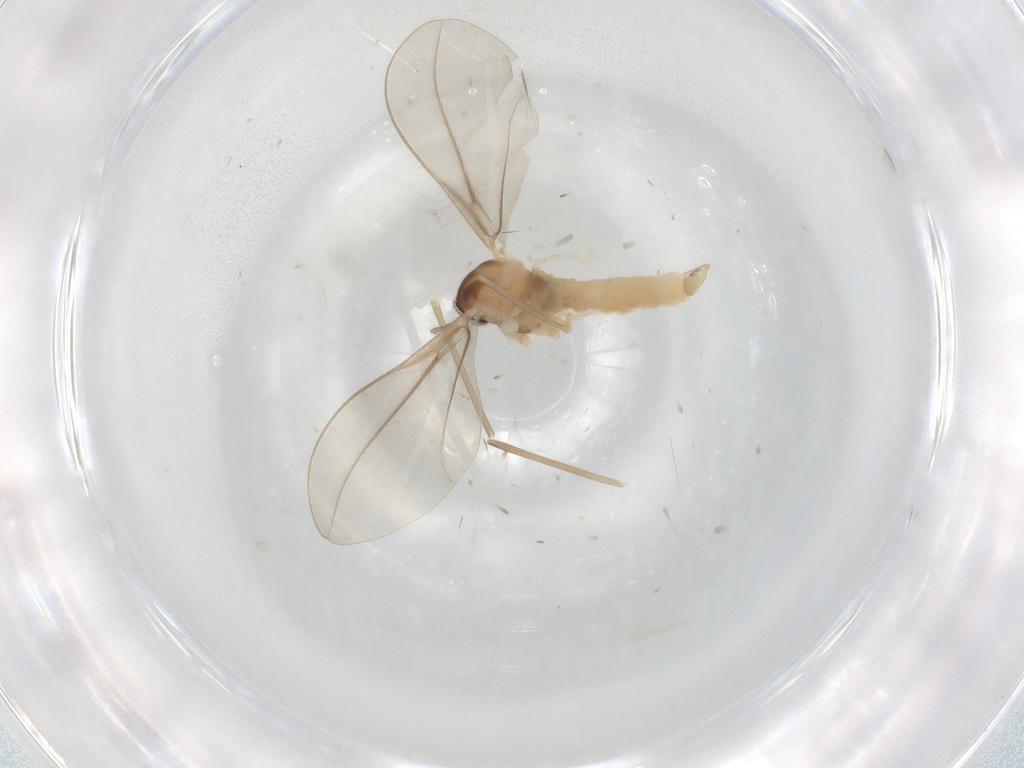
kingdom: Animalia
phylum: Arthropoda
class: Insecta
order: Diptera
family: Cecidomyiidae
